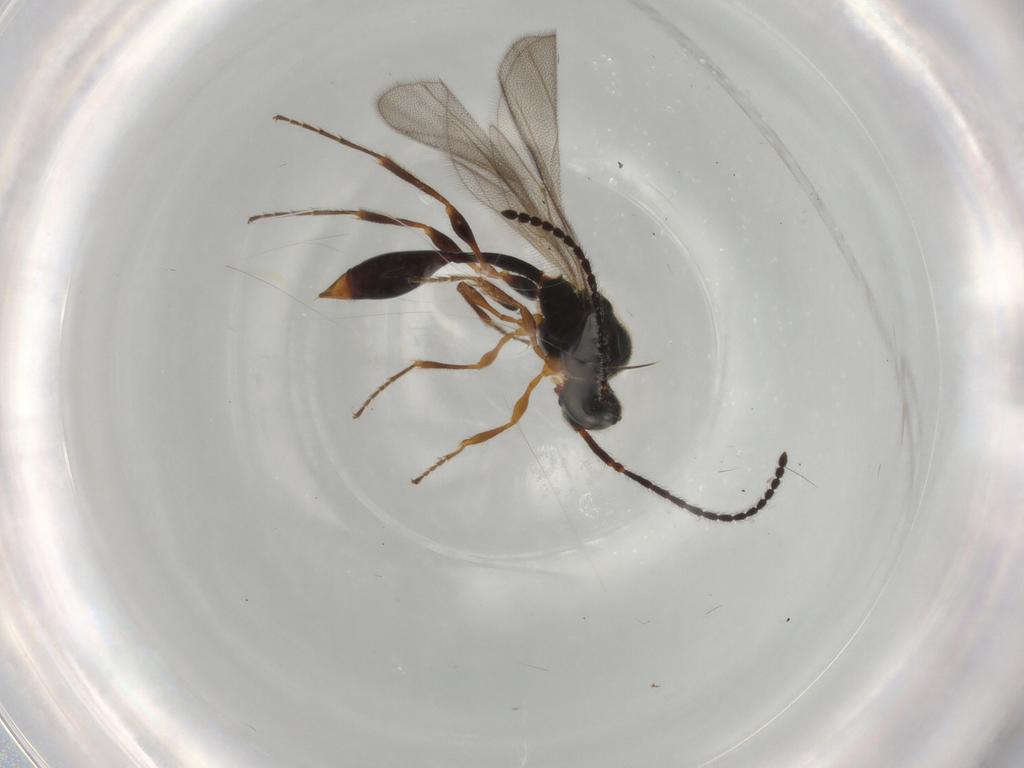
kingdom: Animalia
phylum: Arthropoda
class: Insecta
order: Hymenoptera
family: Diapriidae
